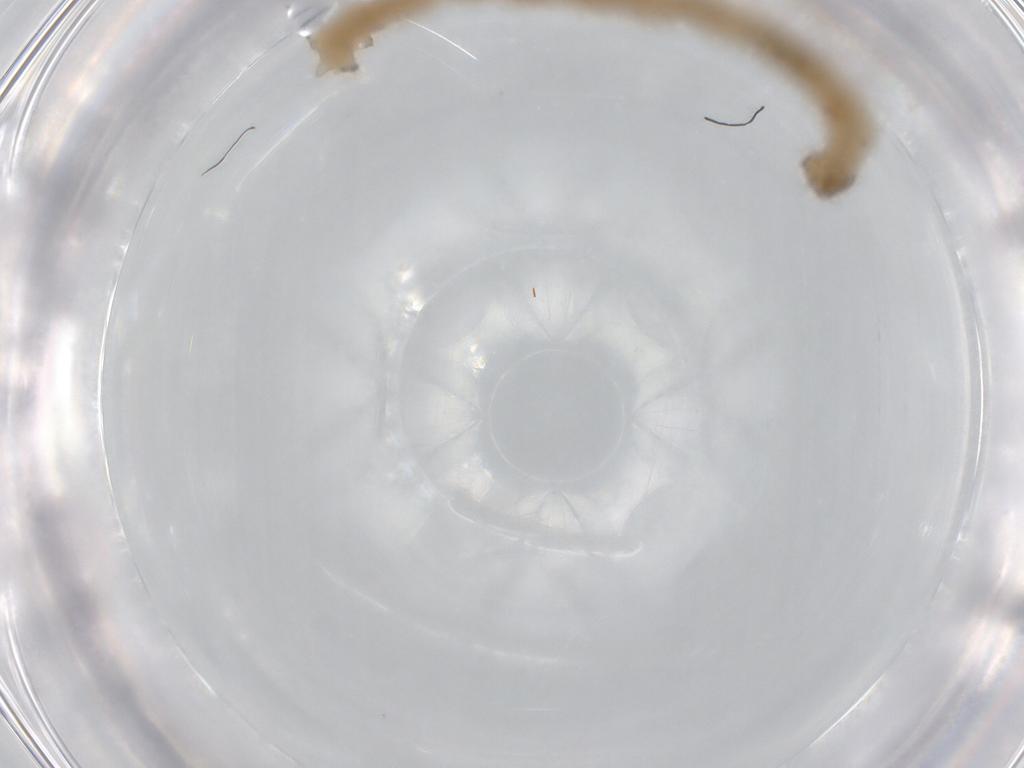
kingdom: Animalia
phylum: Arthropoda
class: Insecta
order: Diptera
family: Chironomidae
